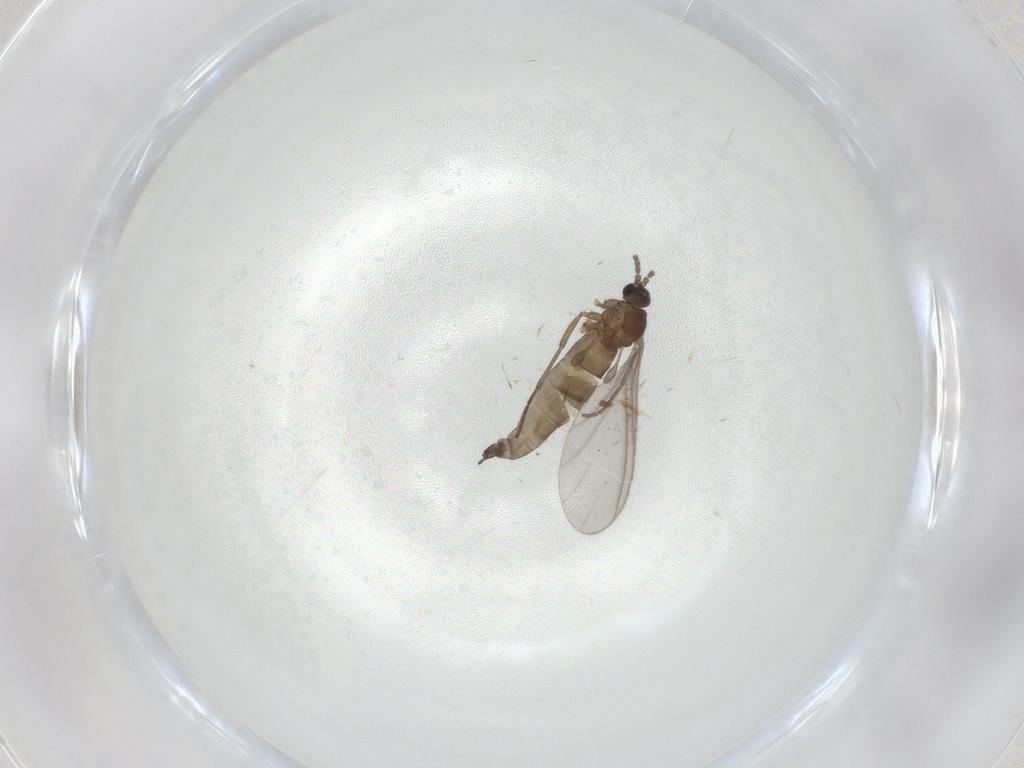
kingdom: Animalia
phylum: Arthropoda
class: Insecta
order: Diptera
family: Sciaridae
